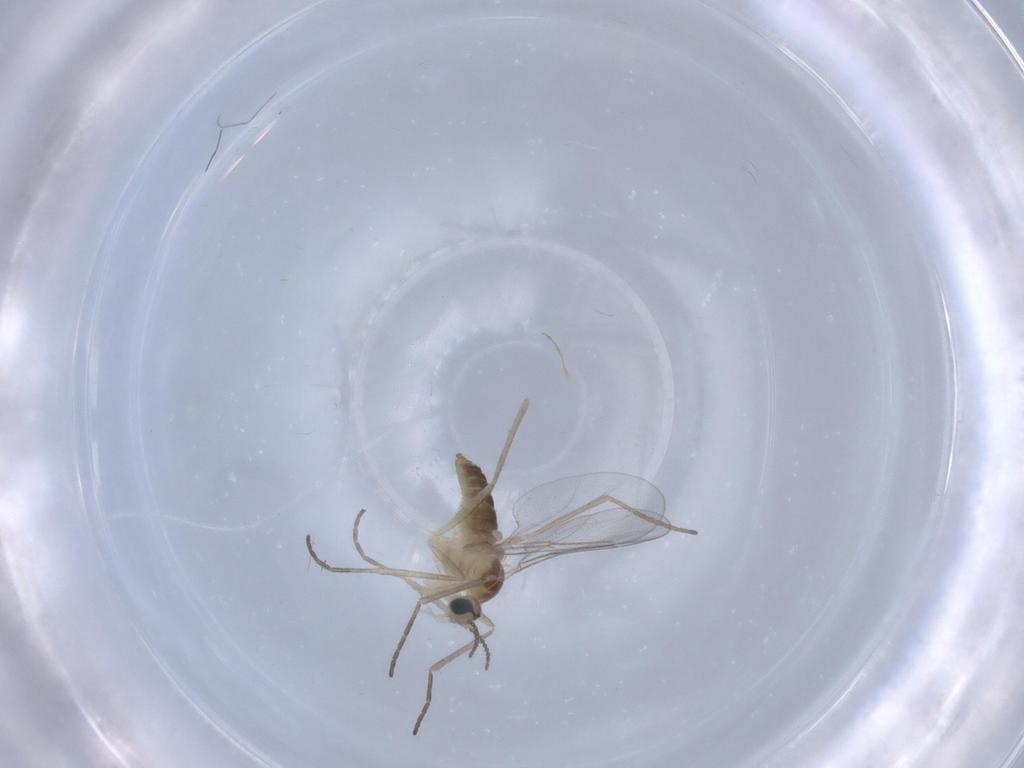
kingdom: Animalia
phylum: Arthropoda
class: Insecta
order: Diptera
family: Cecidomyiidae
